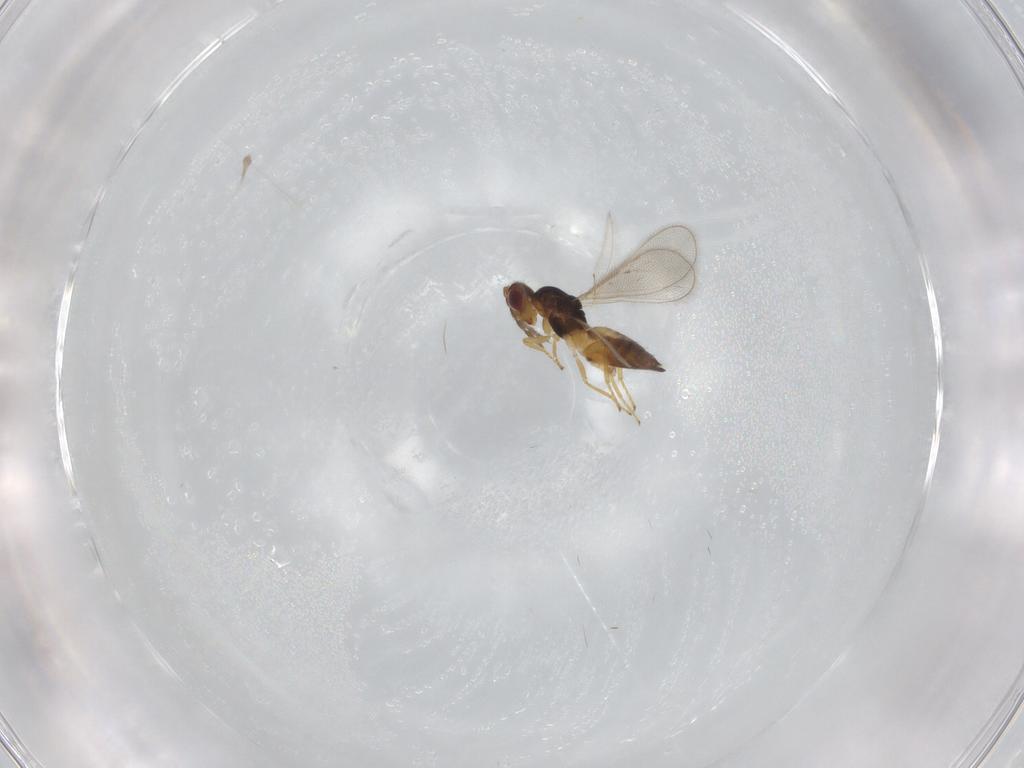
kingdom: Animalia
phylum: Arthropoda
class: Insecta
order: Hymenoptera
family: Eulophidae
